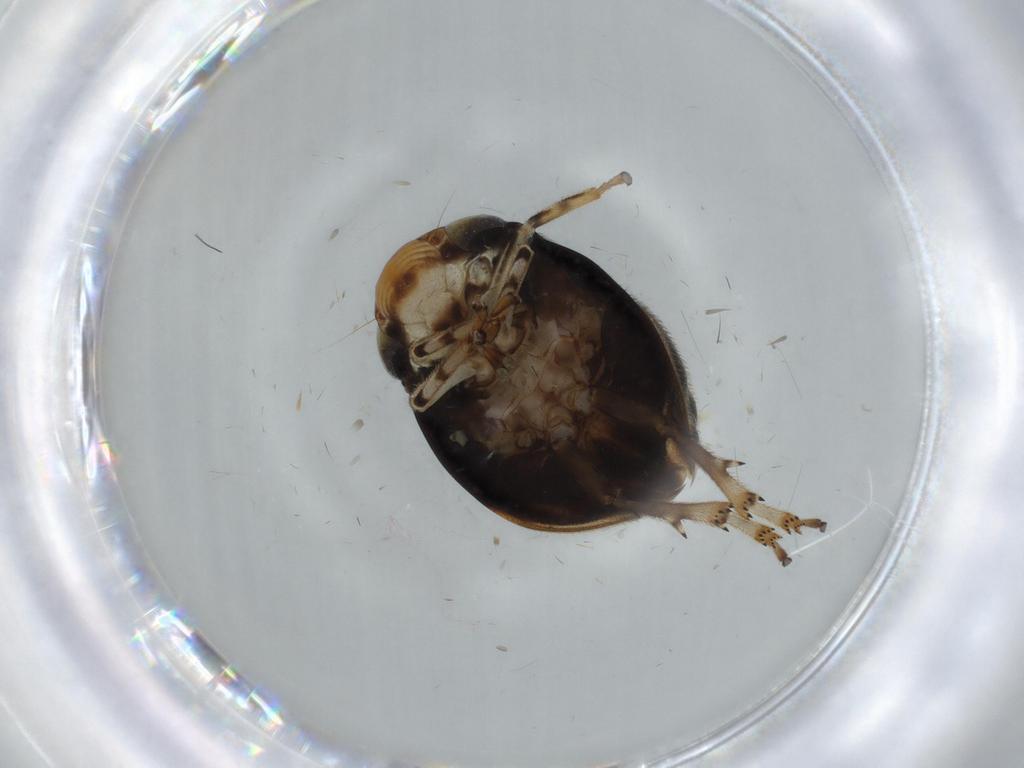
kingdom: Animalia
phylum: Arthropoda
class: Insecta
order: Hemiptera
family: Clastopteridae
